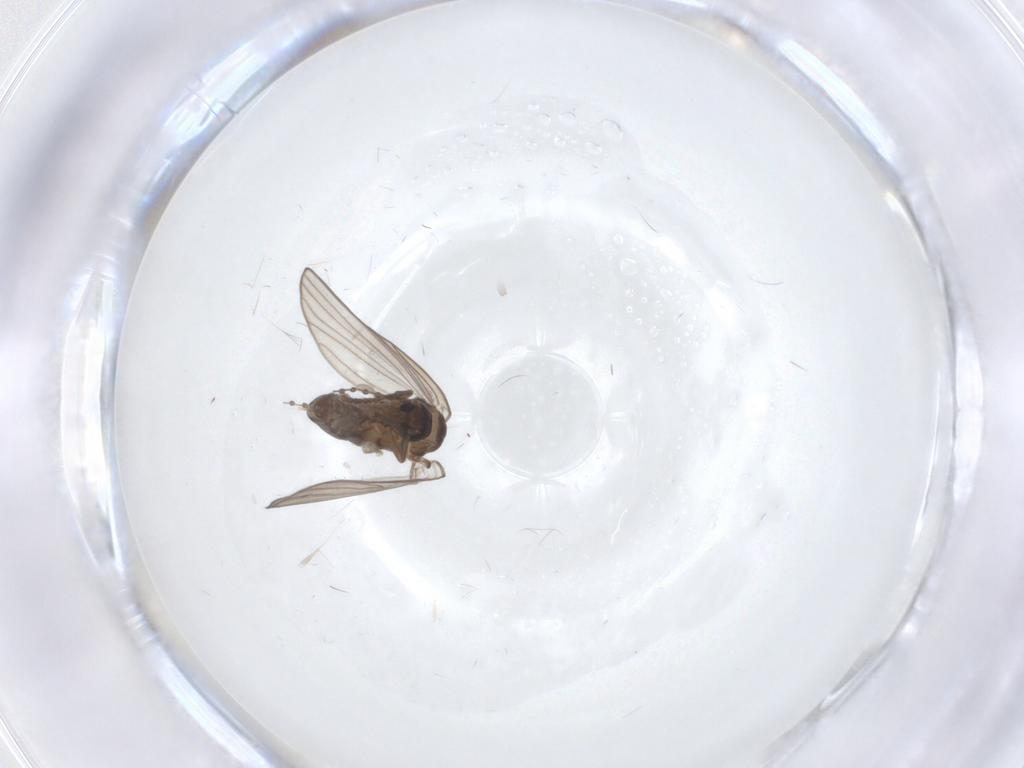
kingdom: Animalia
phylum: Arthropoda
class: Insecta
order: Diptera
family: Psychodidae
